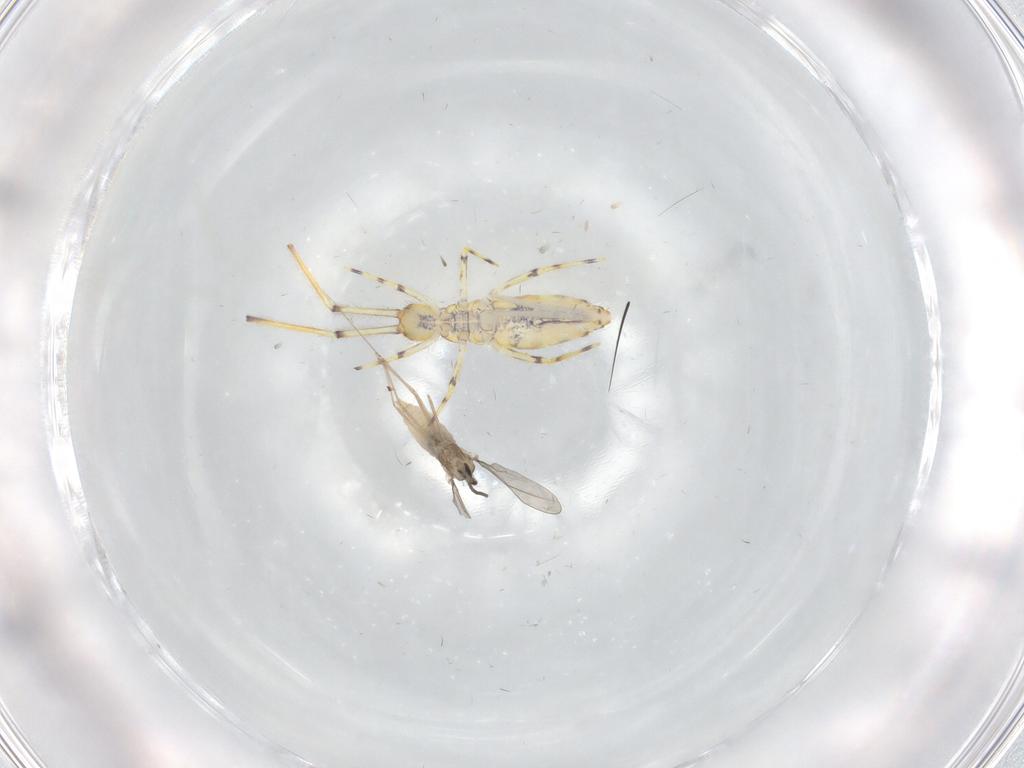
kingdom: Animalia
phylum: Arthropoda
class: Collembola
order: Entomobryomorpha
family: Entomobryidae
